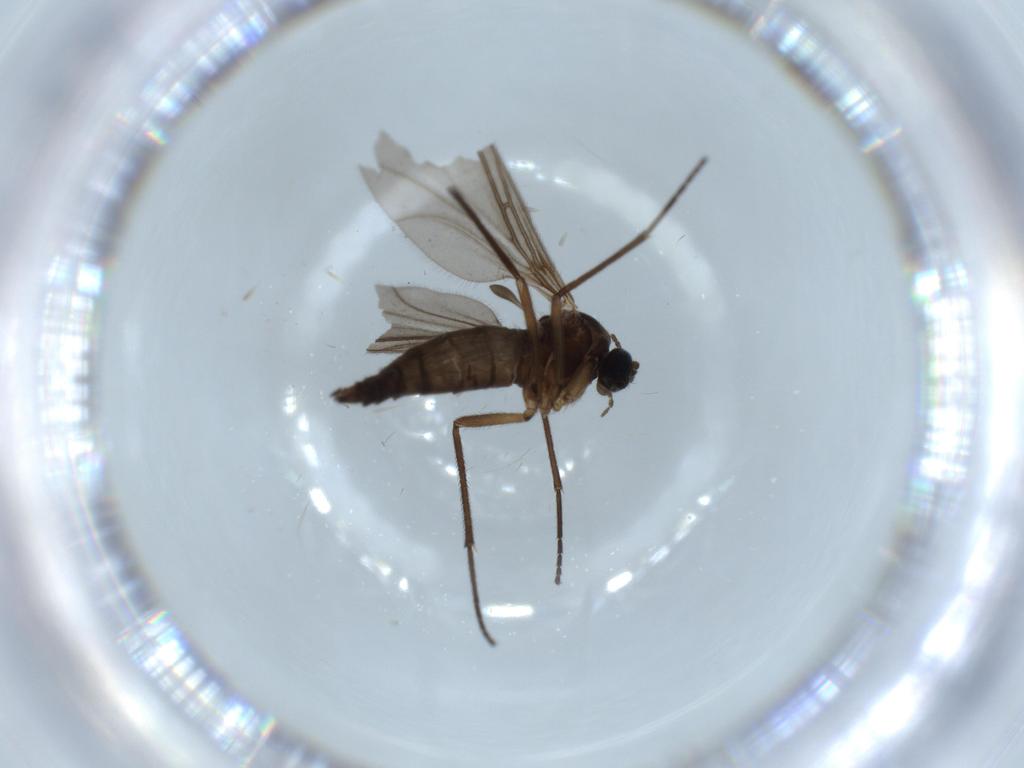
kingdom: Animalia
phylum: Arthropoda
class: Insecta
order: Diptera
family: Sciaridae
